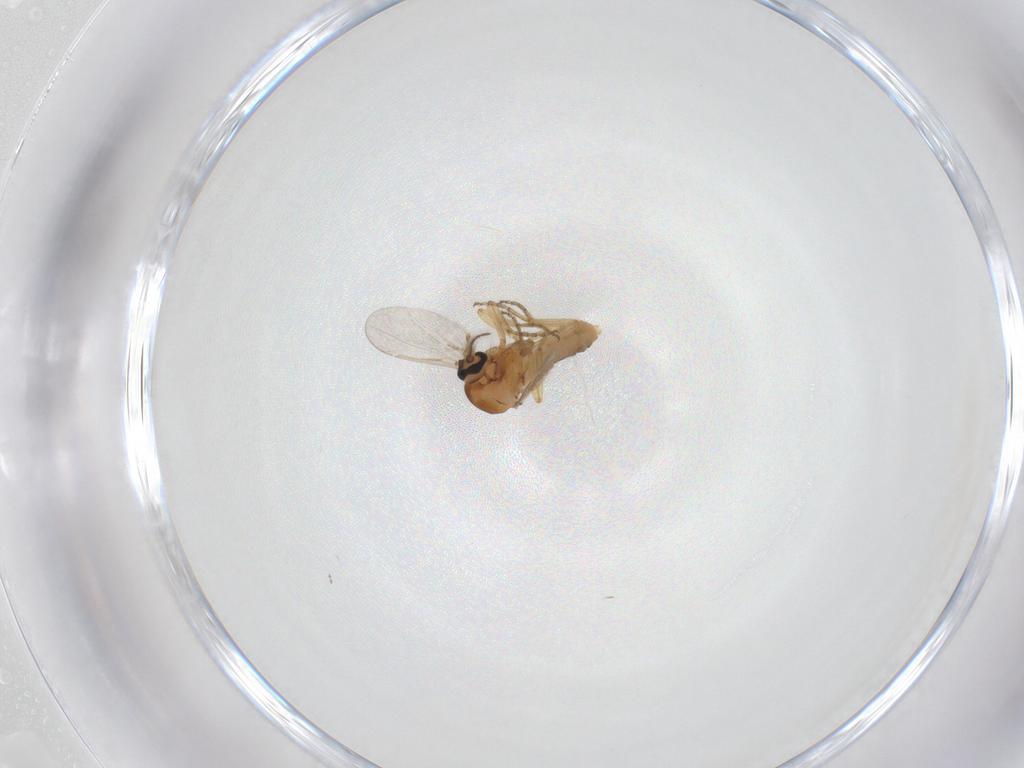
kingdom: Animalia
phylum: Arthropoda
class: Insecta
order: Diptera
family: Ceratopogonidae
